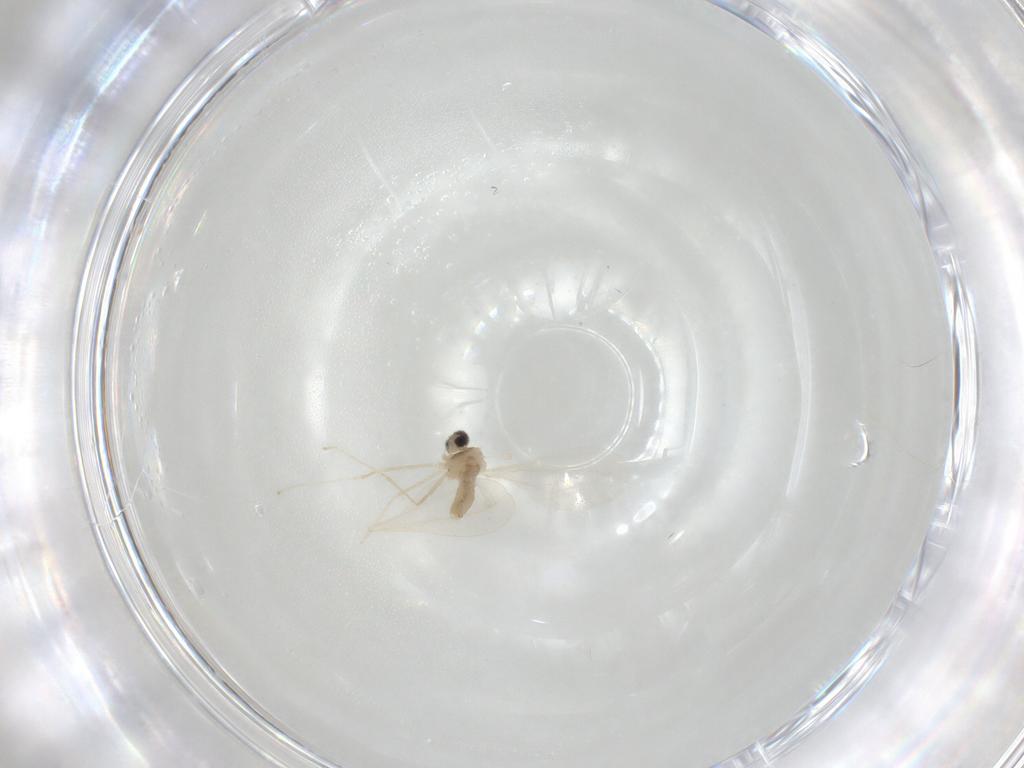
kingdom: Animalia
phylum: Arthropoda
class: Insecta
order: Diptera
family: Cecidomyiidae
